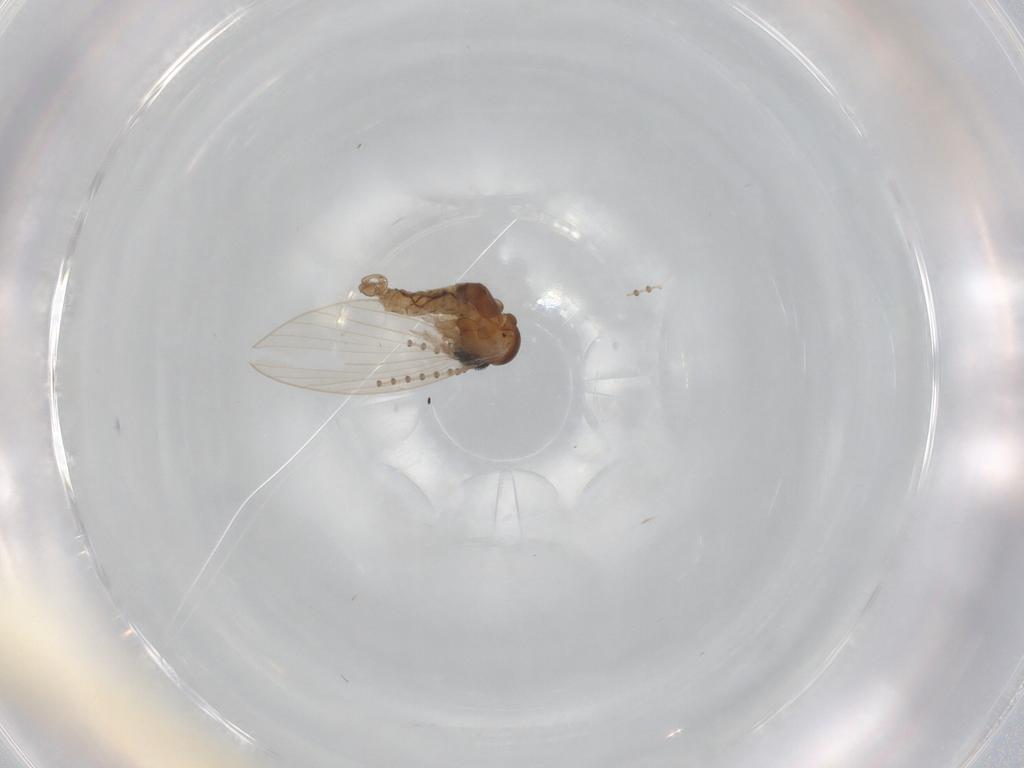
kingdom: Animalia
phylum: Arthropoda
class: Insecta
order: Diptera
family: Psychodidae
